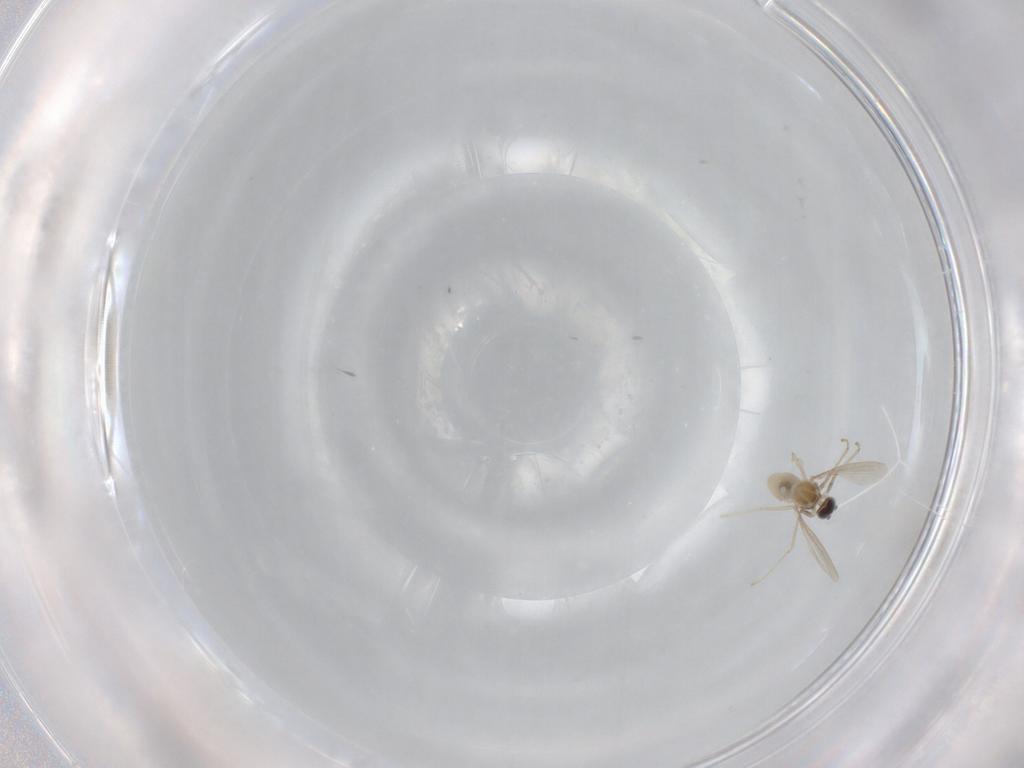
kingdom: Animalia
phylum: Arthropoda
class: Insecta
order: Diptera
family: Cecidomyiidae
